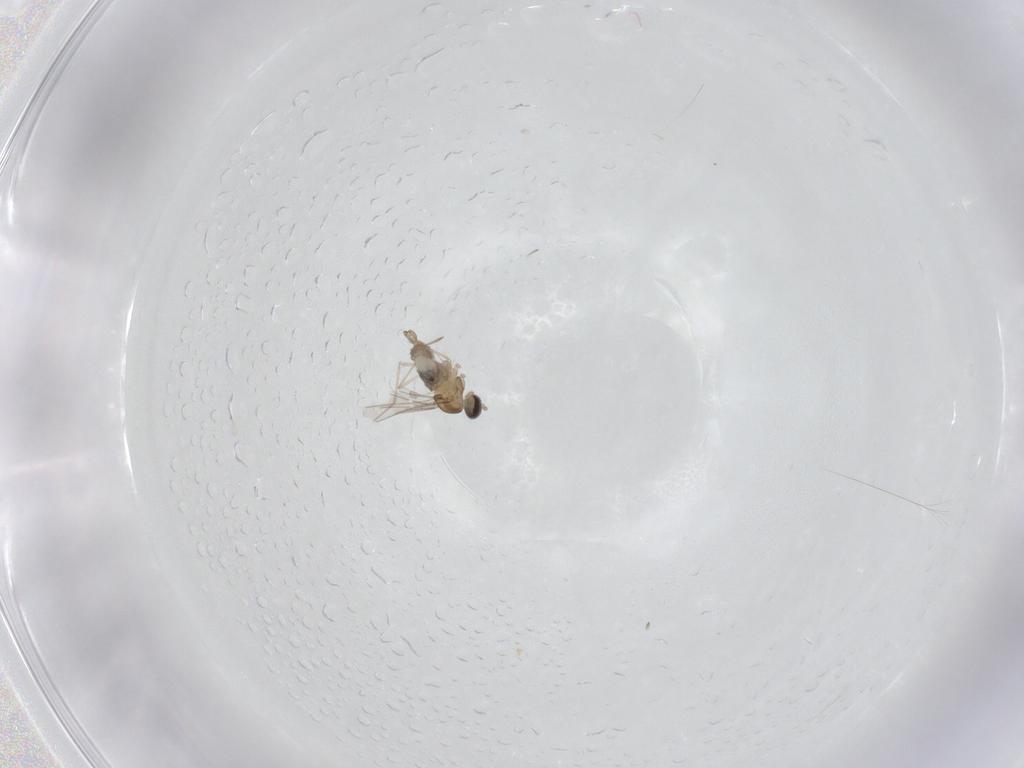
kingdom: Animalia
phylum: Arthropoda
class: Insecta
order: Diptera
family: Cecidomyiidae
